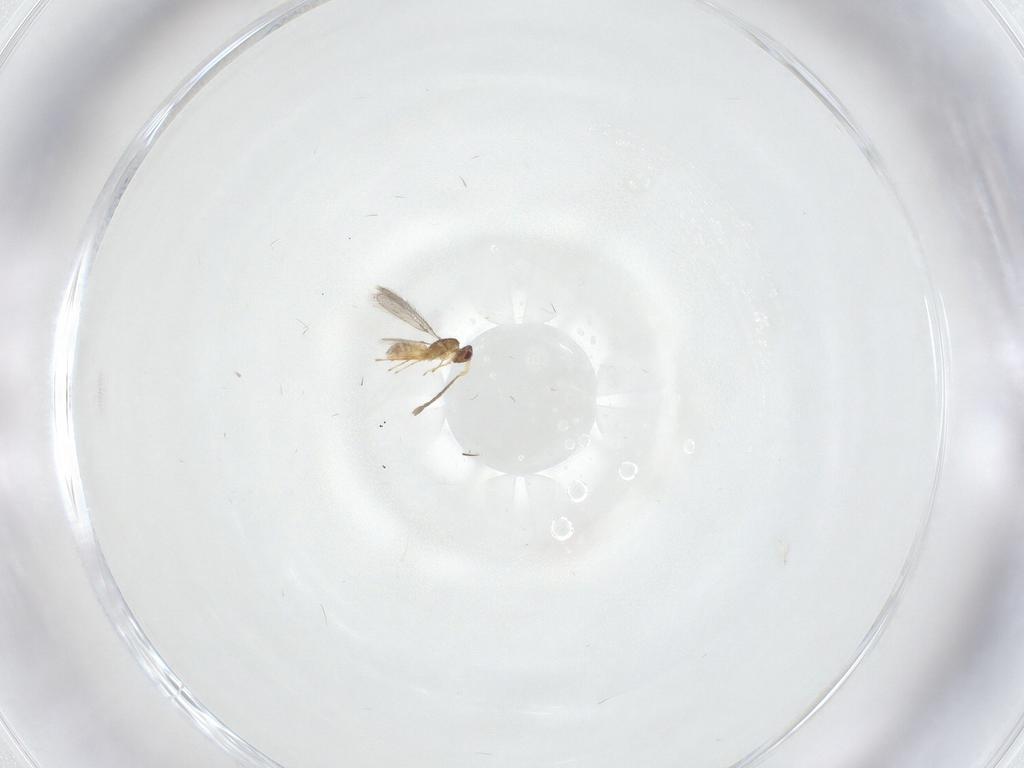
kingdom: Animalia
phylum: Arthropoda
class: Insecta
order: Hymenoptera
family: Mymaridae
